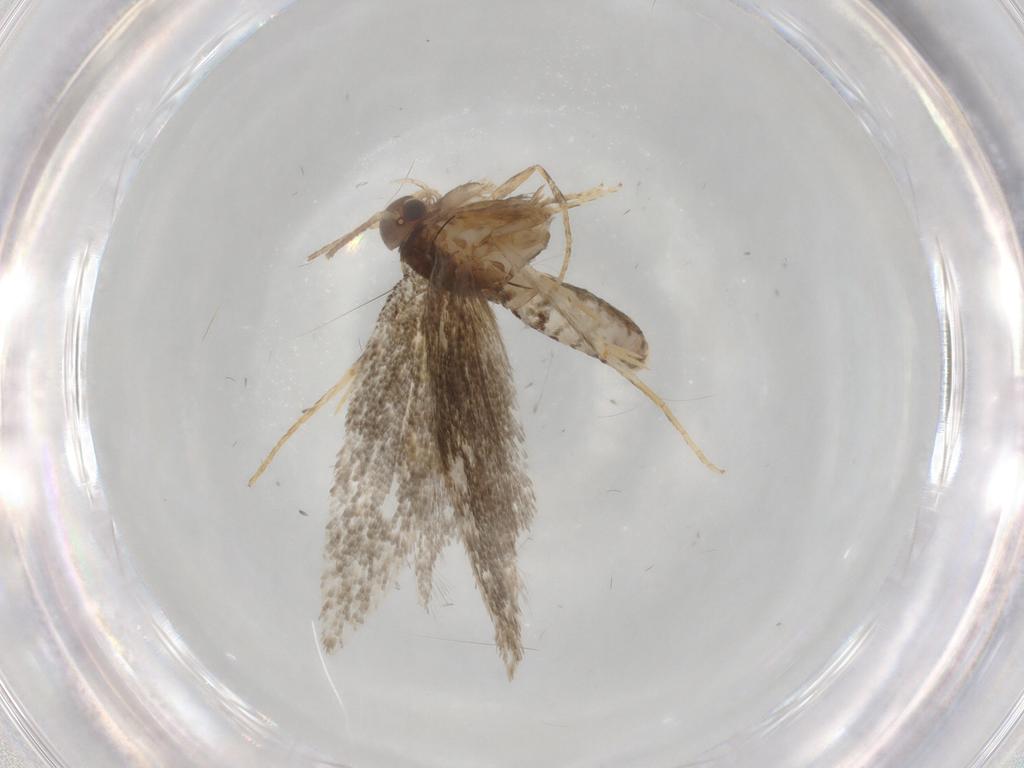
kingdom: Animalia
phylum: Arthropoda
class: Insecta
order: Lepidoptera
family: Gelechiidae
